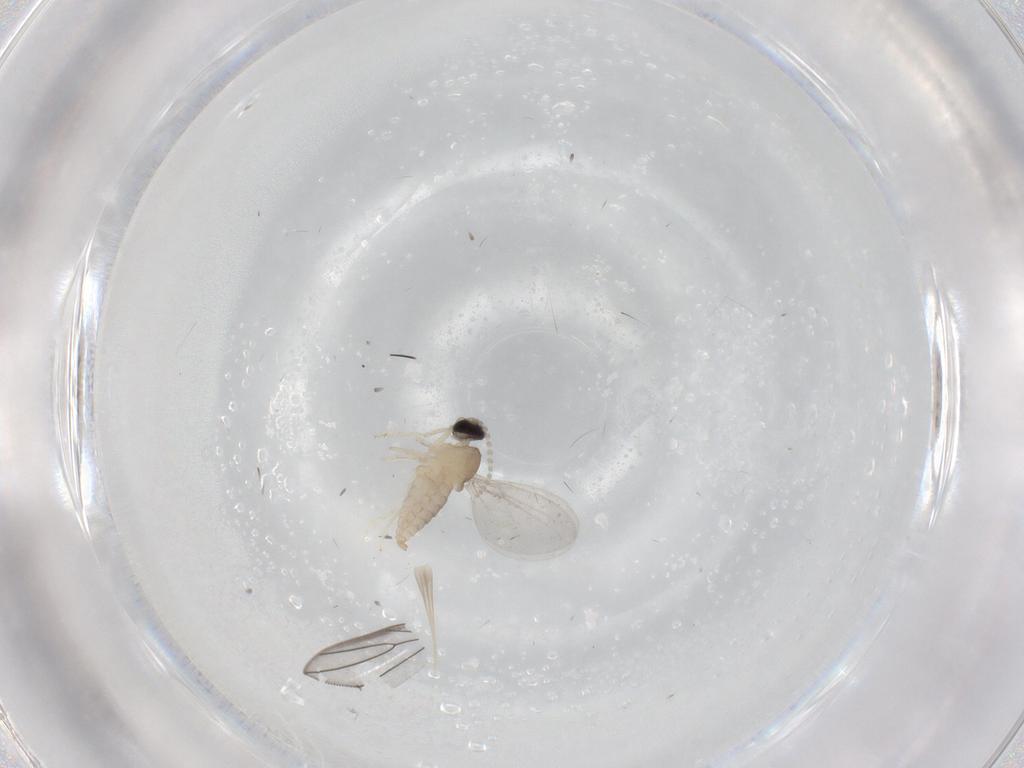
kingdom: Animalia
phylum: Arthropoda
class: Insecta
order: Diptera
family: Cecidomyiidae
